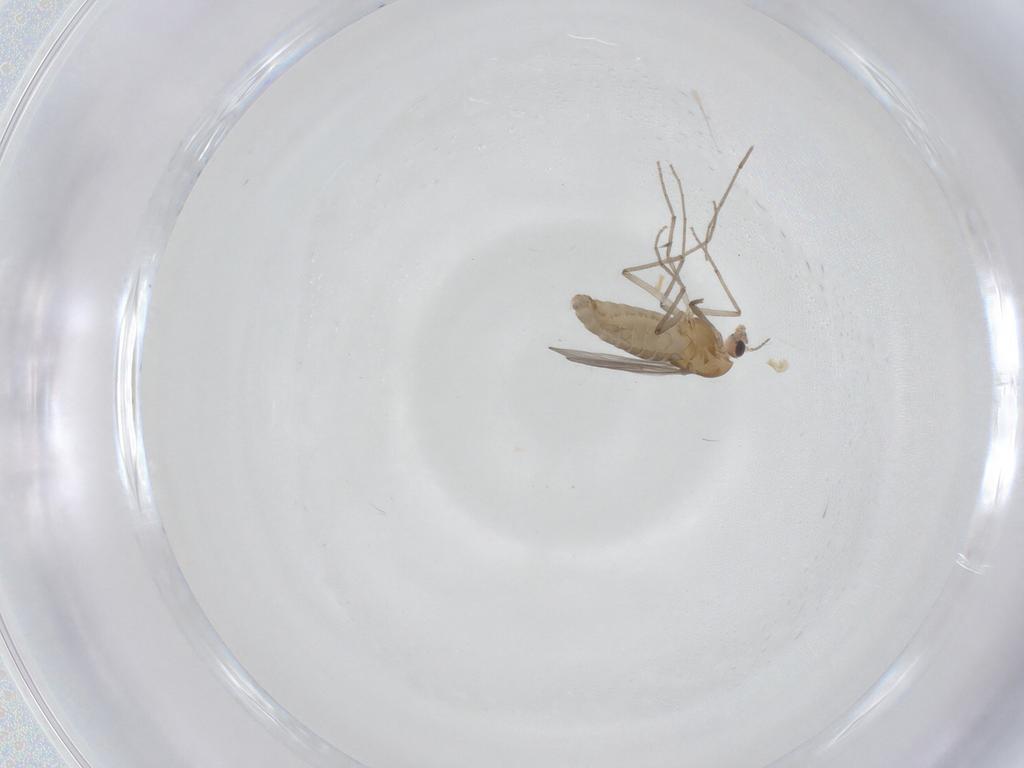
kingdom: Animalia
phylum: Arthropoda
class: Insecta
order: Diptera
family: Chironomidae
